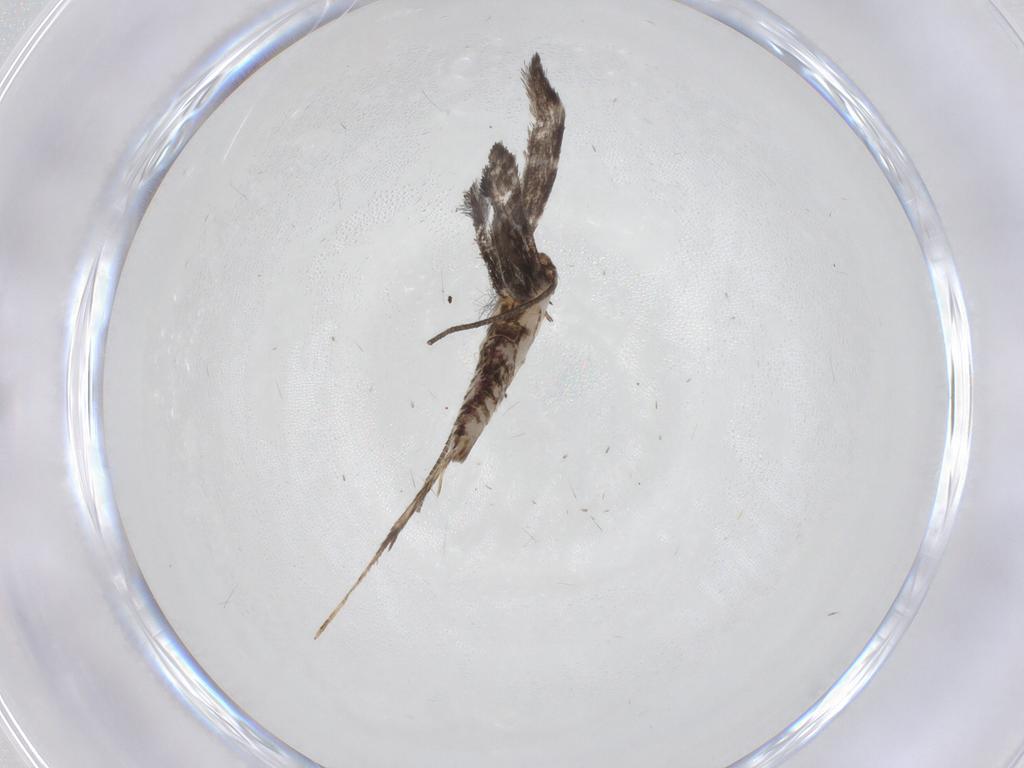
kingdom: Animalia
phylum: Arthropoda
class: Insecta
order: Lepidoptera
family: Gracillariidae
